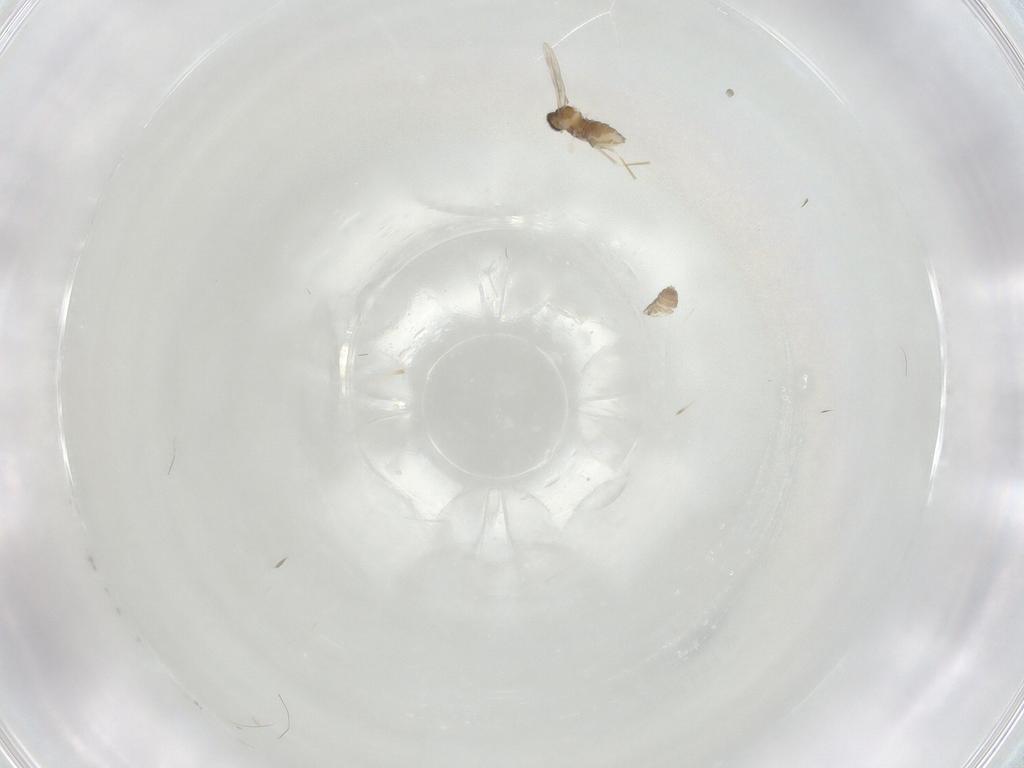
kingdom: Animalia
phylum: Arthropoda
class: Insecta
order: Diptera
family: Cecidomyiidae
